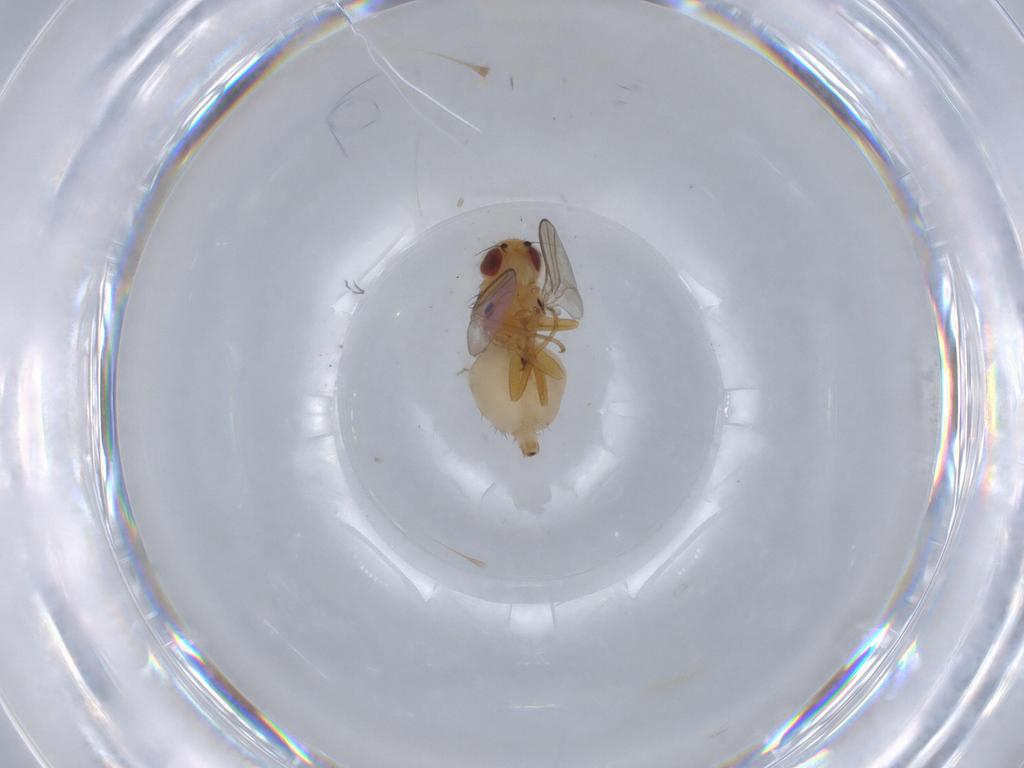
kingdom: Animalia
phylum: Arthropoda
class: Insecta
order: Diptera
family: Chloropidae
